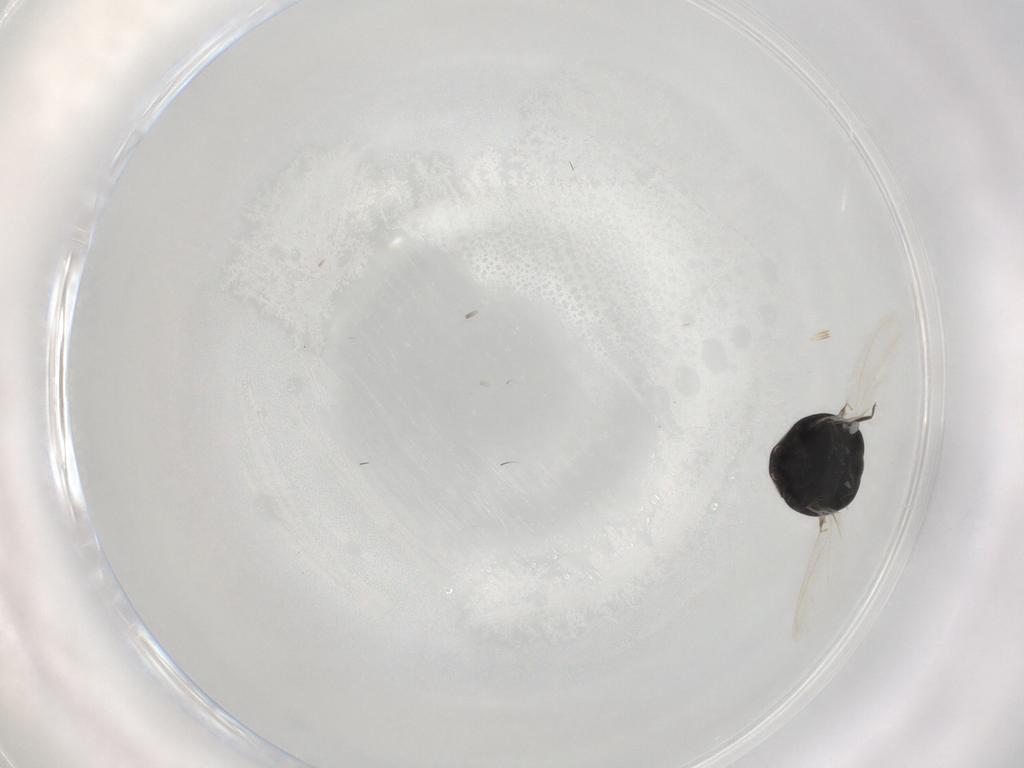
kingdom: Animalia
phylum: Arthropoda
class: Insecta
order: Coleoptera
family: Coccinellidae
